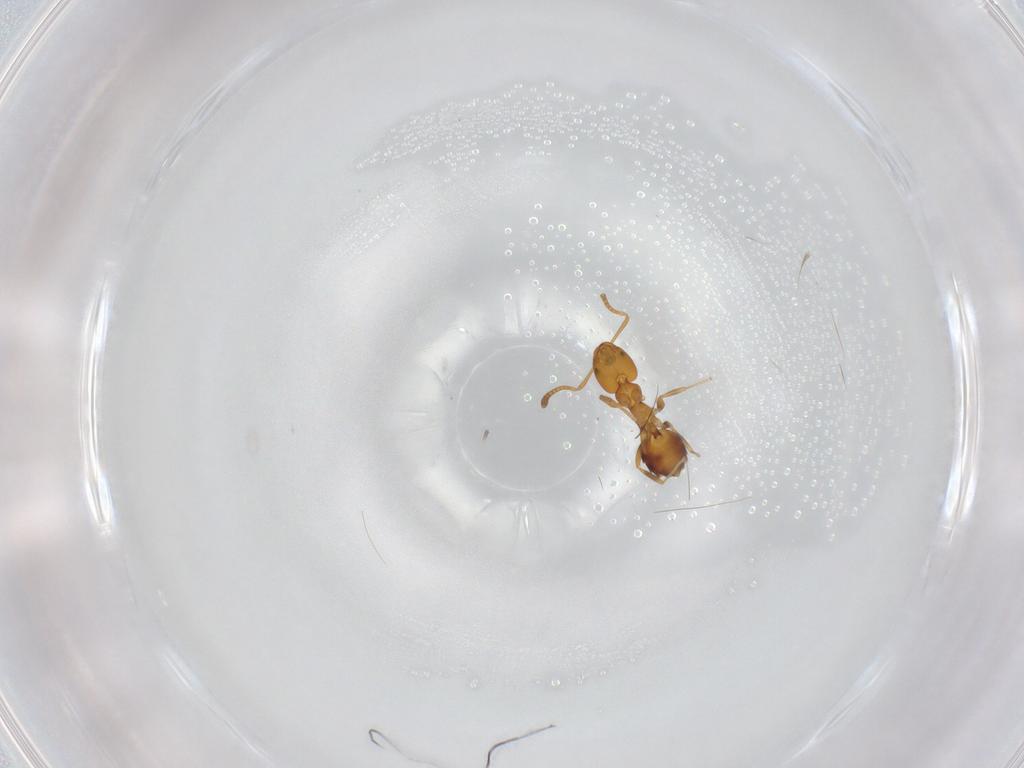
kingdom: Animalia
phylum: Arthropoda
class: Insecta
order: Hymenoptera
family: Formicidae
